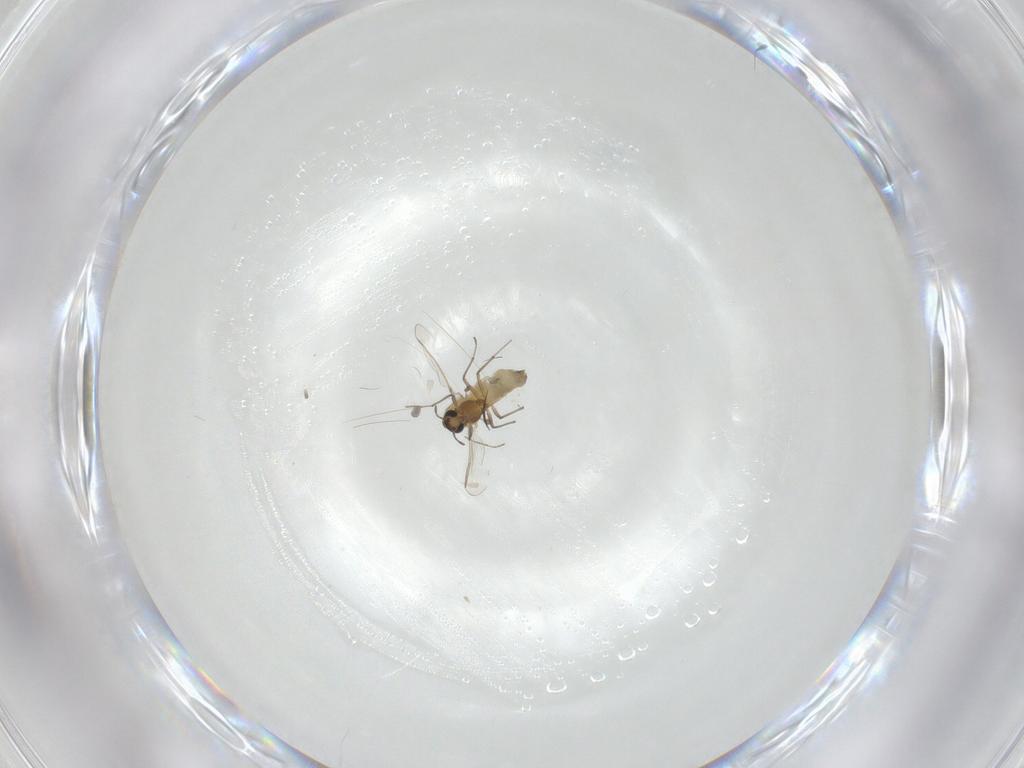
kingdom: Animalia
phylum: Arthropoda
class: Insecta
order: Diptera
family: Chironomidae
